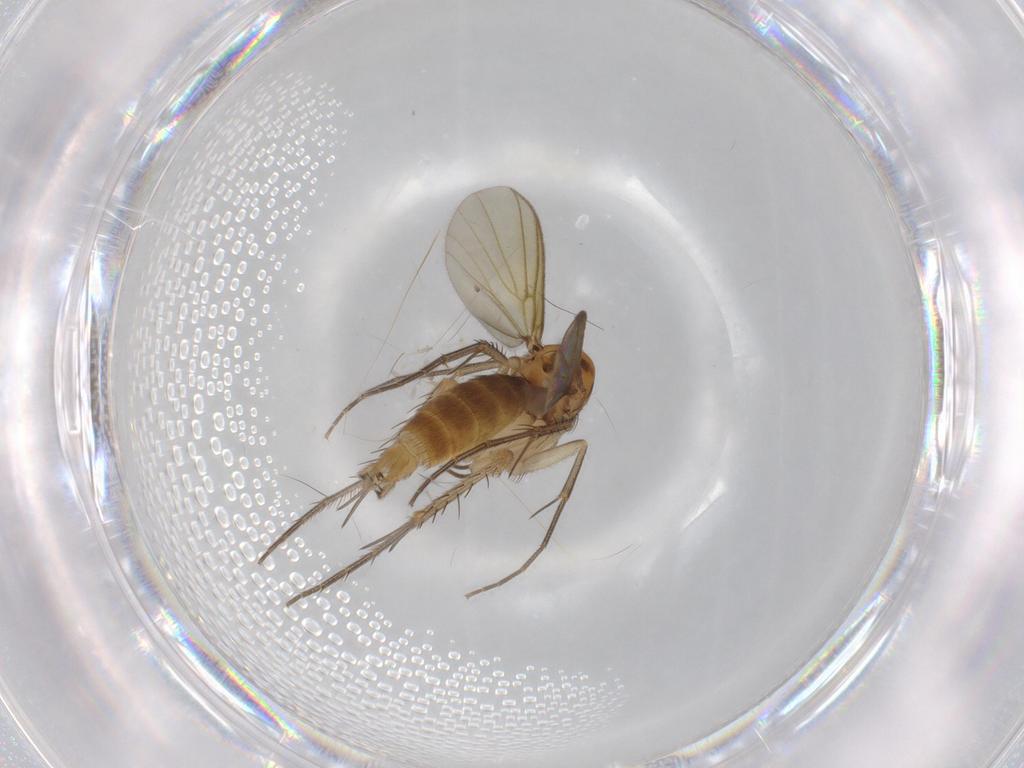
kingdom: Animalia
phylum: Arthropoda
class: Insecta
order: Diptera
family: Mycetophilidae
